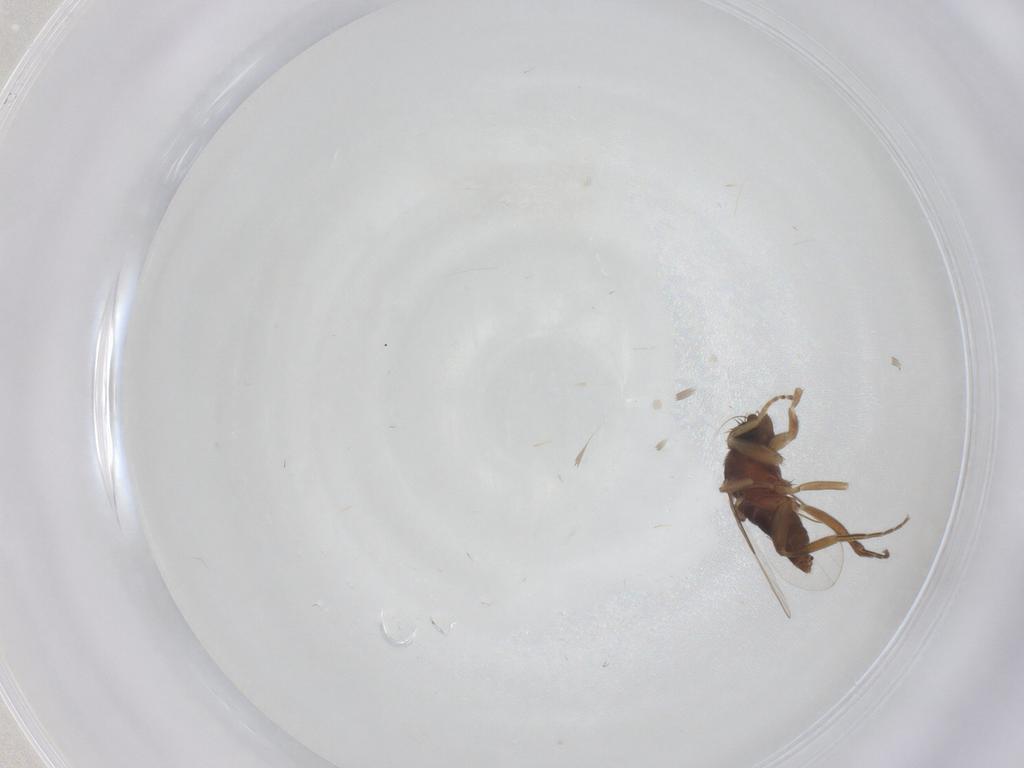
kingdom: Animalia
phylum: Arthropoda
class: Insecta
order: Diptera
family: Phoridae
